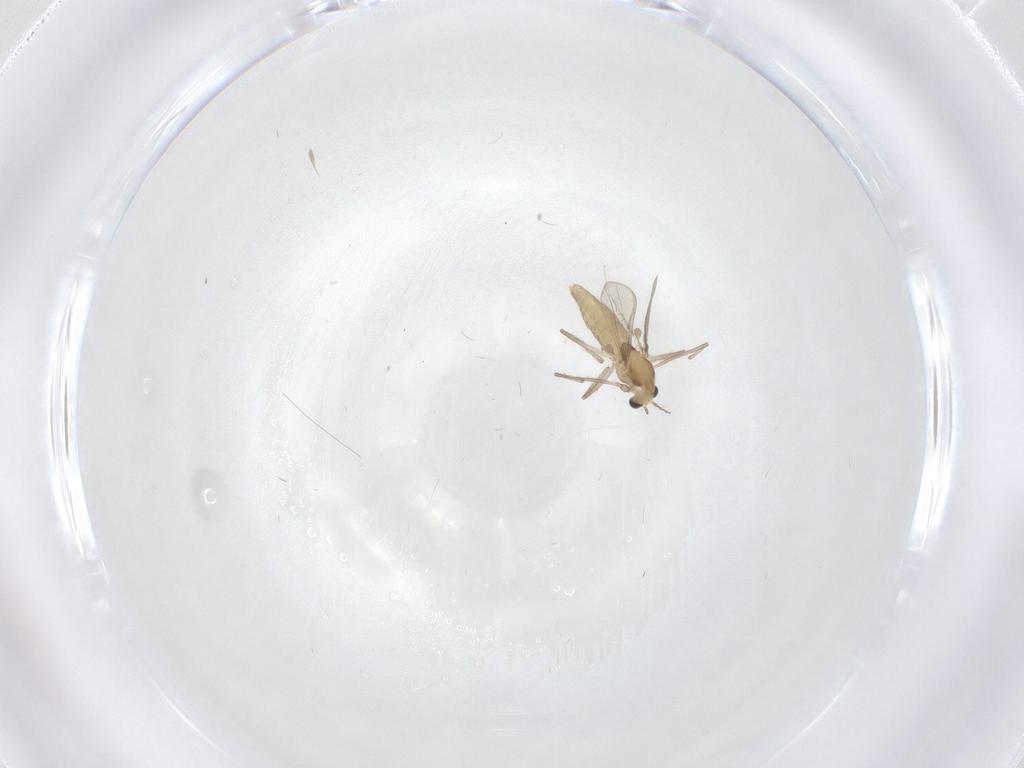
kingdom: Animalia
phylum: Arthropoda
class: Insecta
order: Diptera
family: Chironomidae
